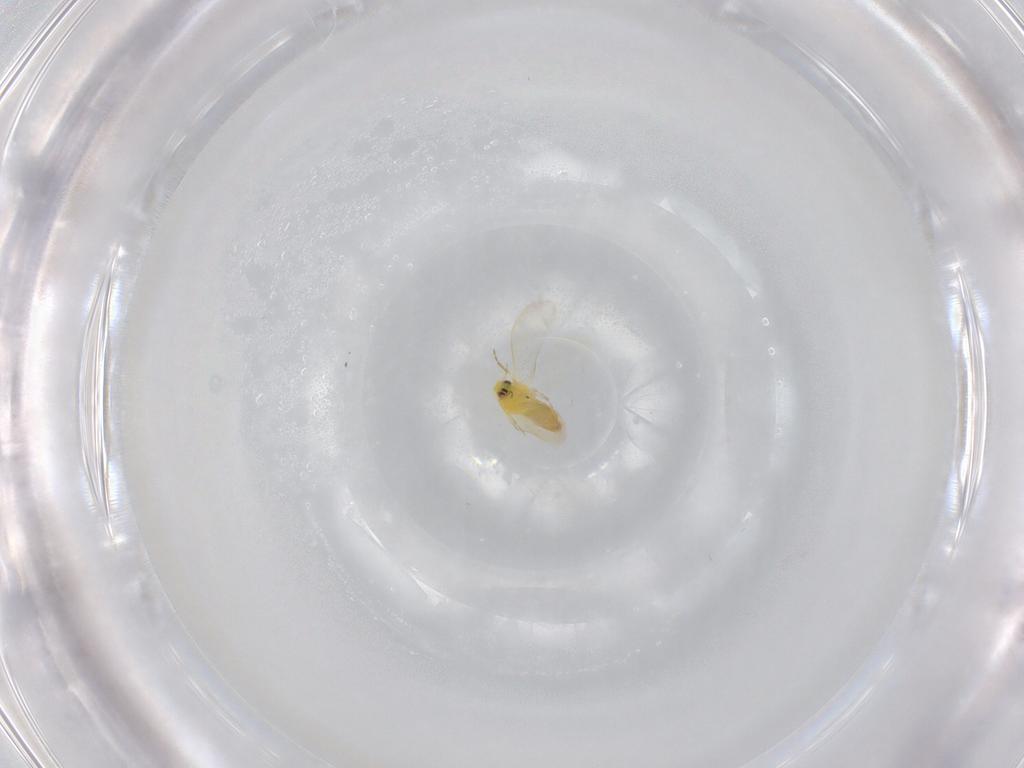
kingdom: Animalia
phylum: Arthropoda
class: Insecta
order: Hemiptera
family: Aleyrodidae
